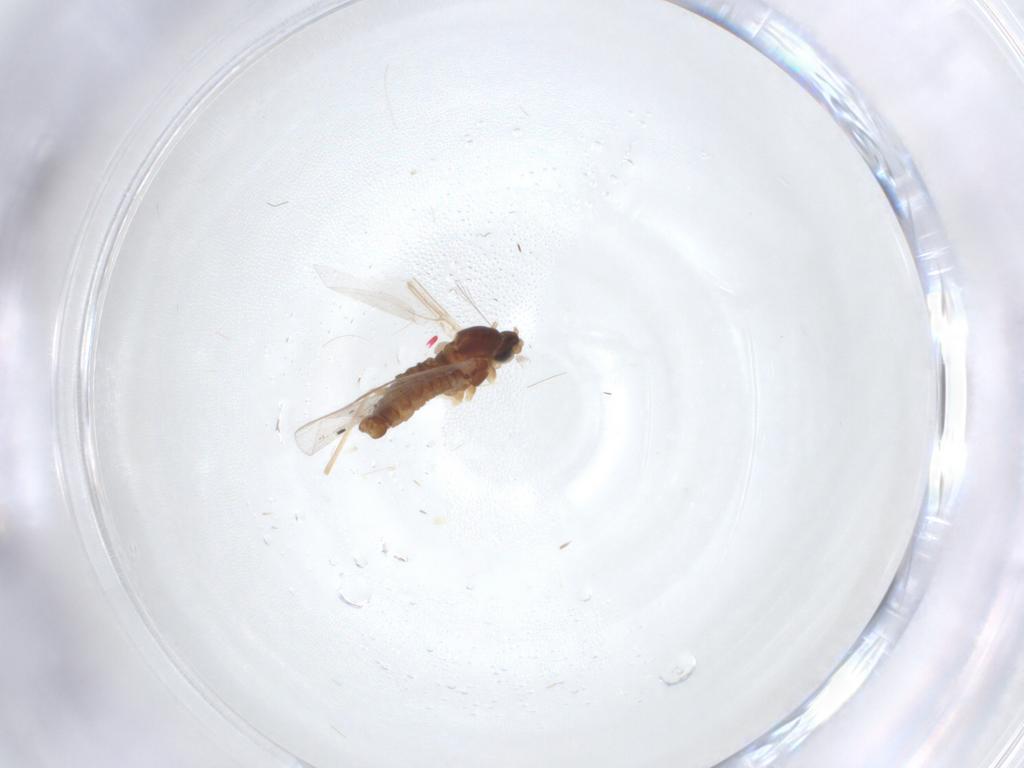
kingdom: Animalia
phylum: Arthropoda
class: Insecta
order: Diptera
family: Cecidomyiidae
